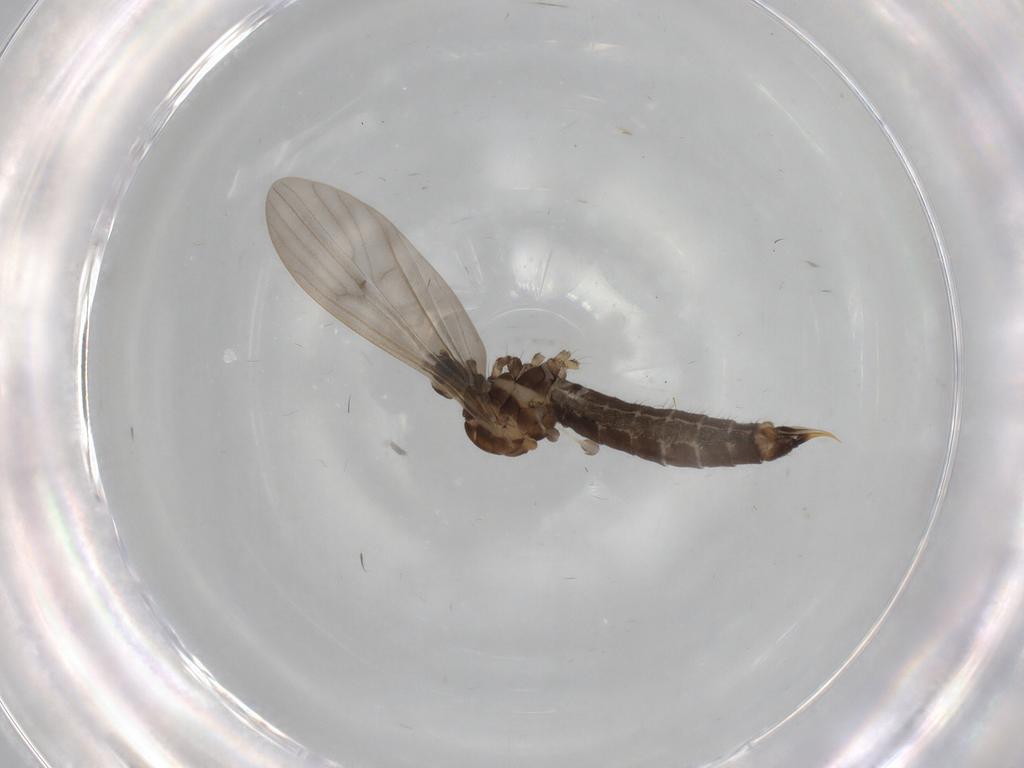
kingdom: Animalia
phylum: Arthropoda
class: Insecta
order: Diptera
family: Limoniidae
